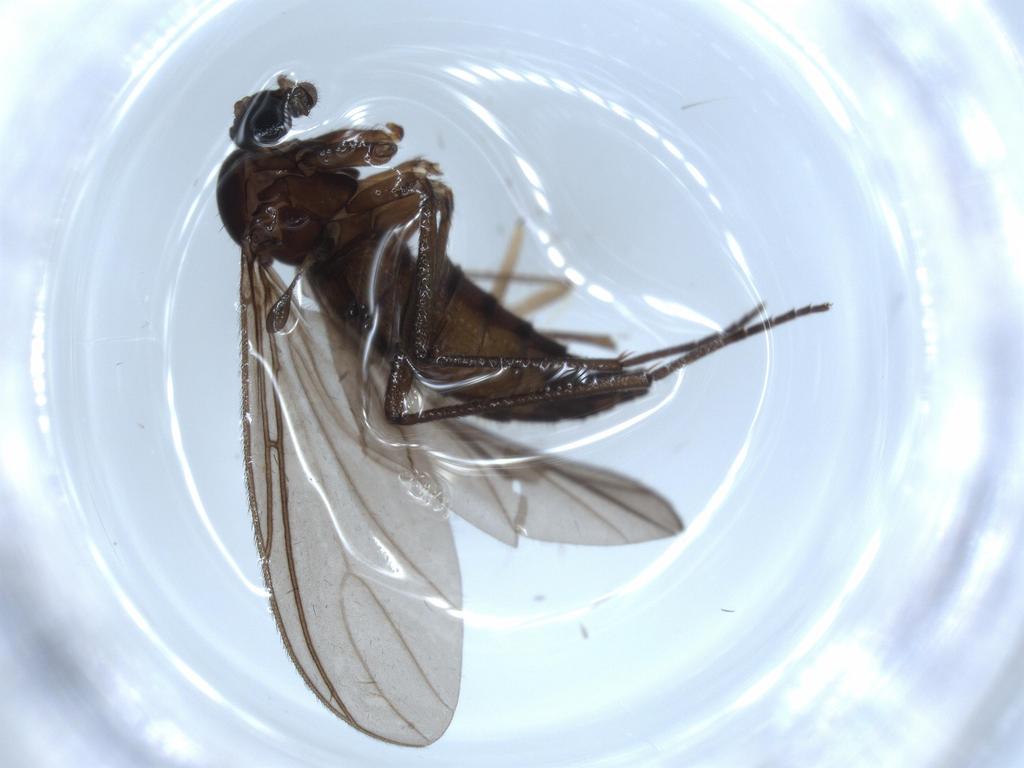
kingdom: Animalia
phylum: Arthropoda
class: Insecta
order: Diptera
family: Sciaridae
